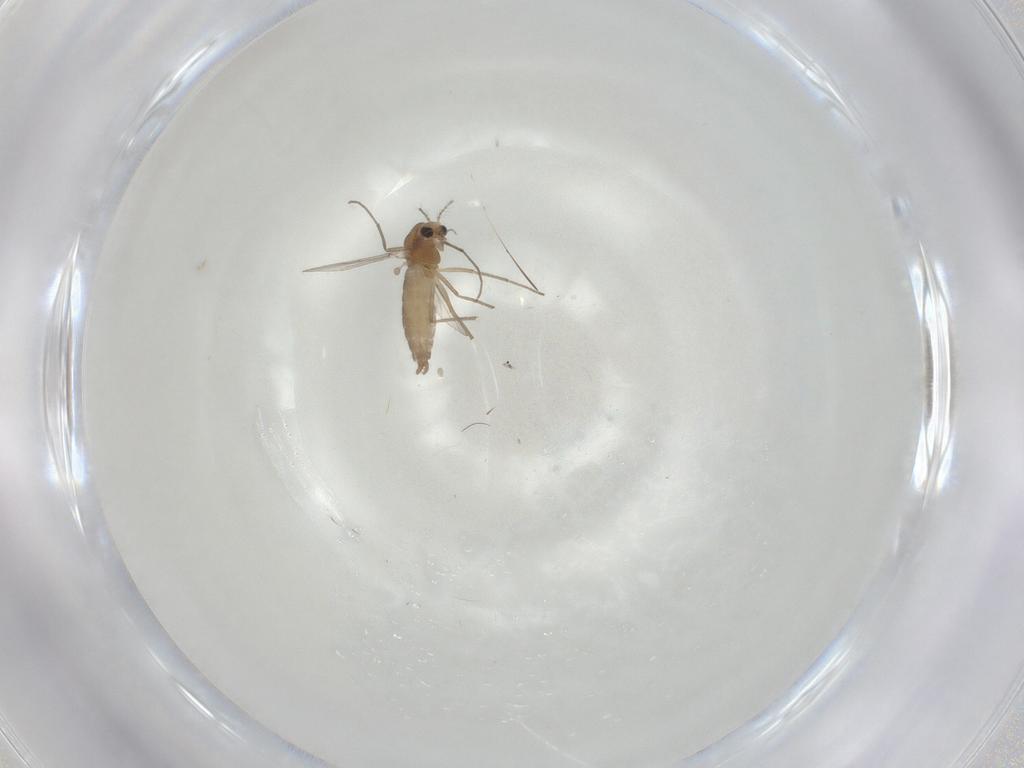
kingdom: Animalia
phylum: Arthropoda
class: Insecta
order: Diptera
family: Chironomidae
